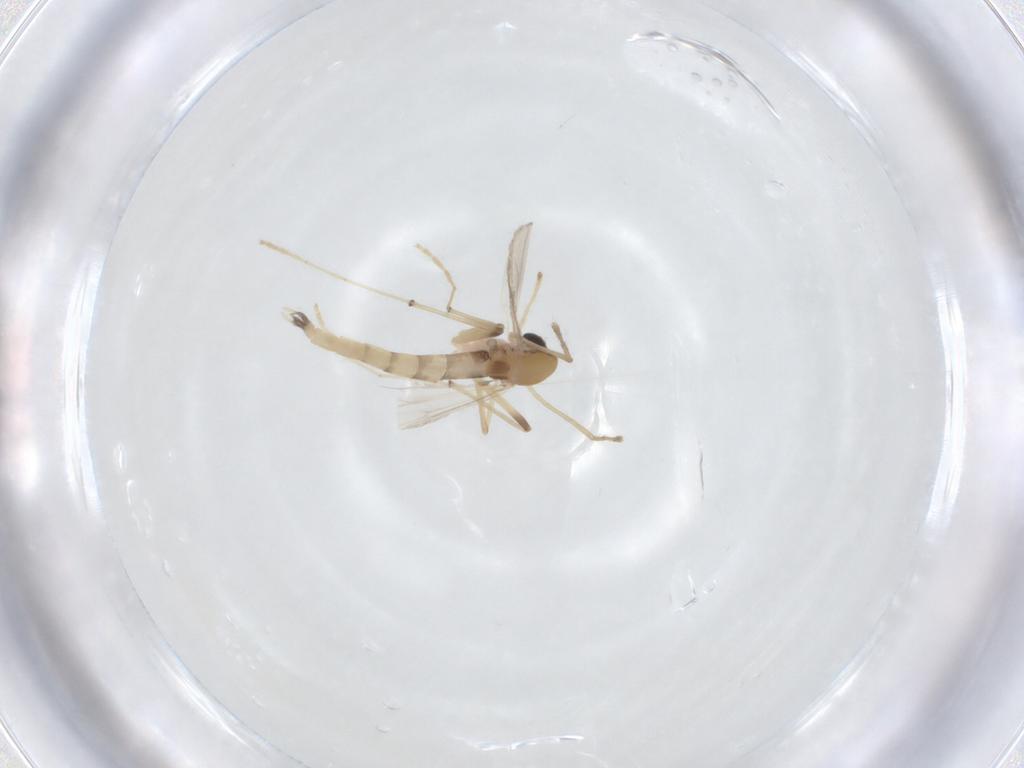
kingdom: Animalia
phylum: Arthropoda
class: Insecta
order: Diptera
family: Chironomidae
